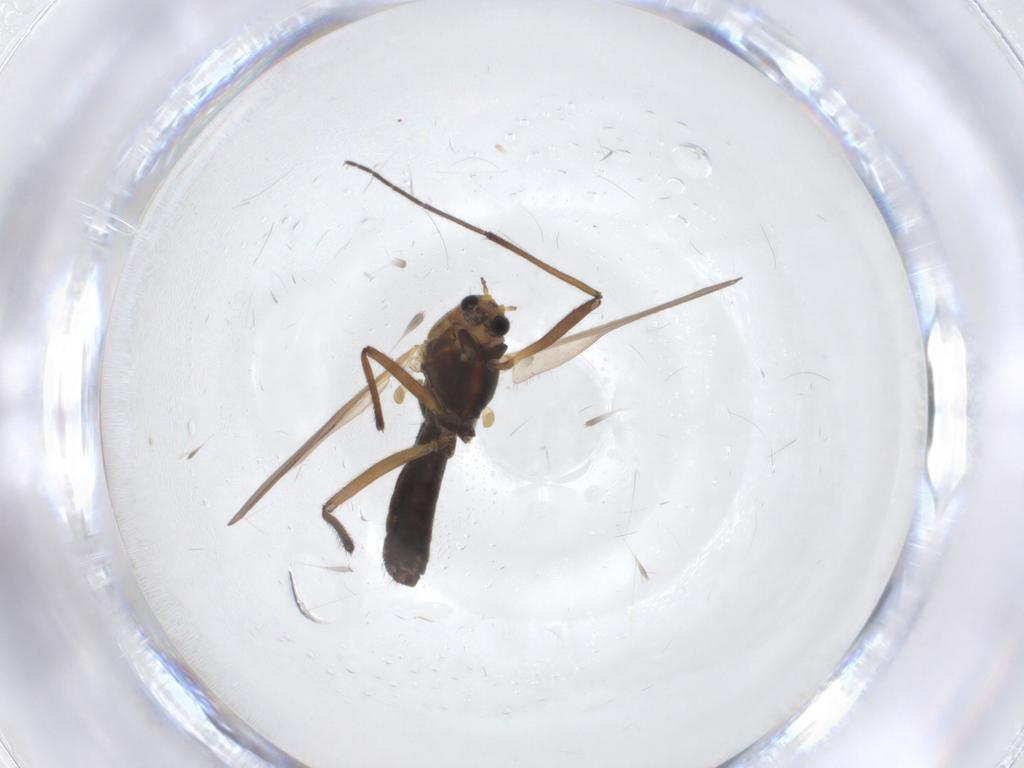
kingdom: Animalia
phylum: Arthropoda
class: Insecta
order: Diptera
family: Chironomidae
